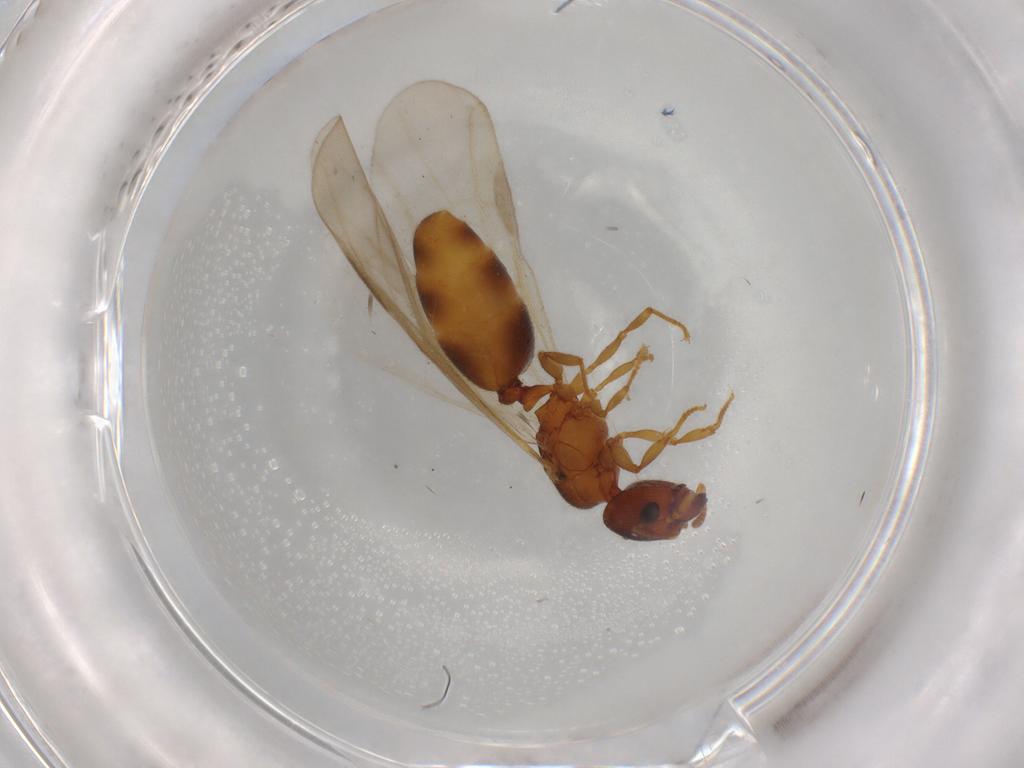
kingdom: Animalia
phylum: Arthropoda
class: Insecta
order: Hymenoptera
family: Formicidae
